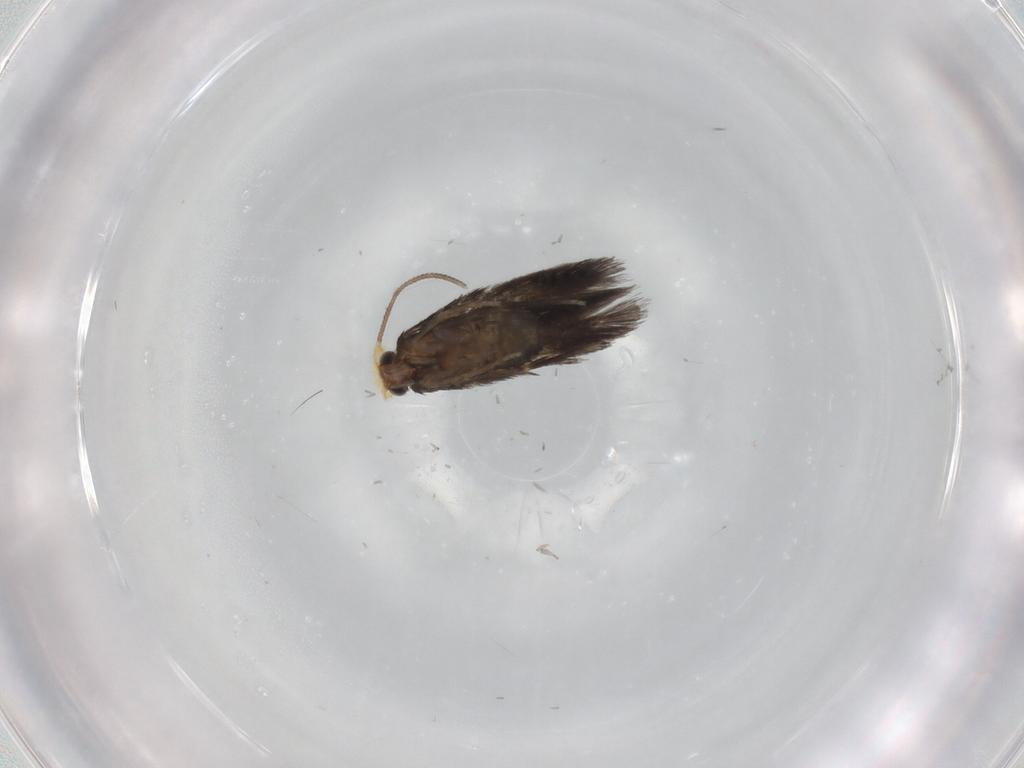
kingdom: Animalia
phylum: Arthropoda
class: Insecta
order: Lepidoptera
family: Nepticulidae
